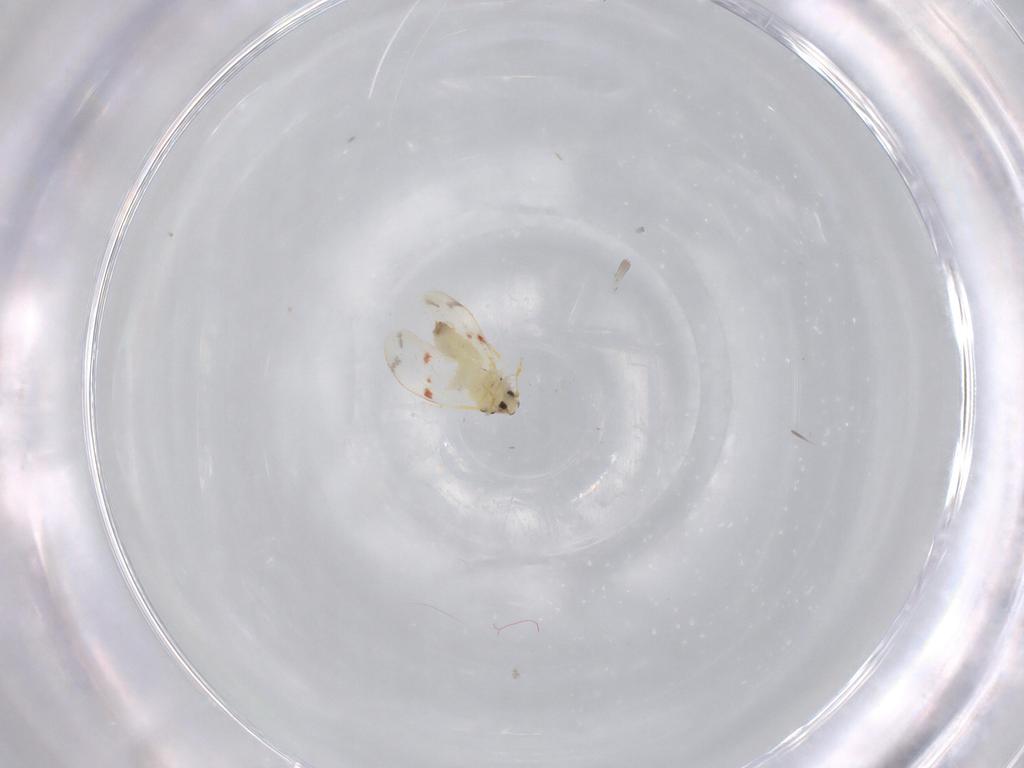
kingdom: Animalia
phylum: Arthropoda
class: Insecta
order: Hemiptera
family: Aleyrodidae
